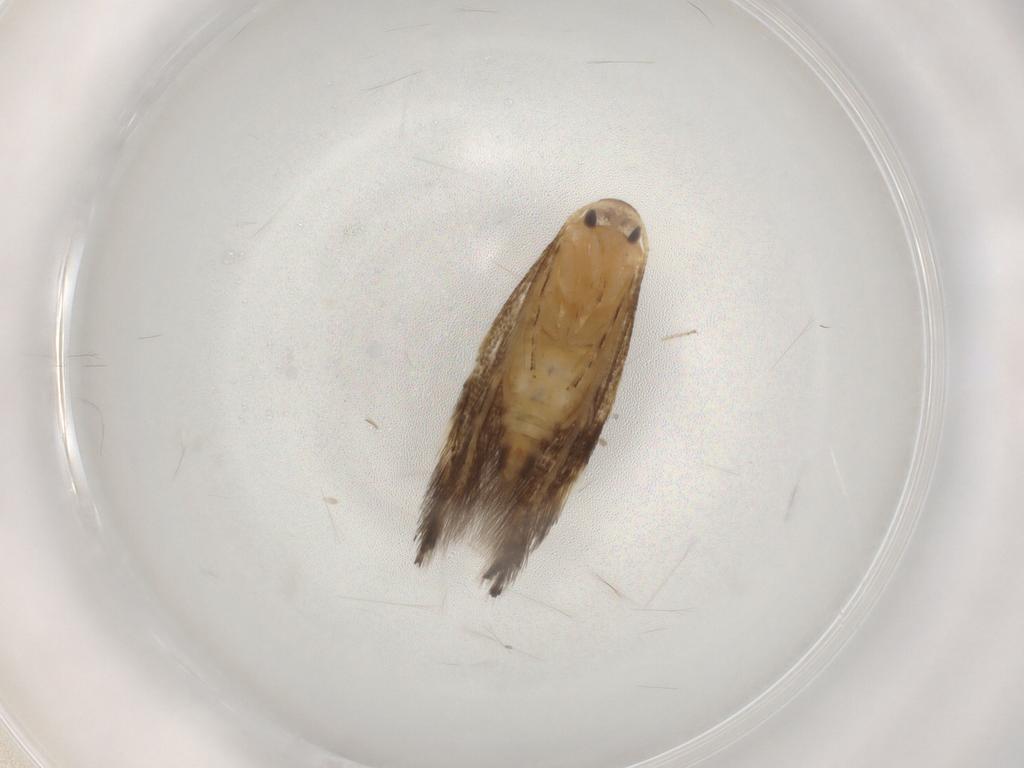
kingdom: Animalia
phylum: Arthropoda
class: Insecta
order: Lepidoptera
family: Elachistidae
